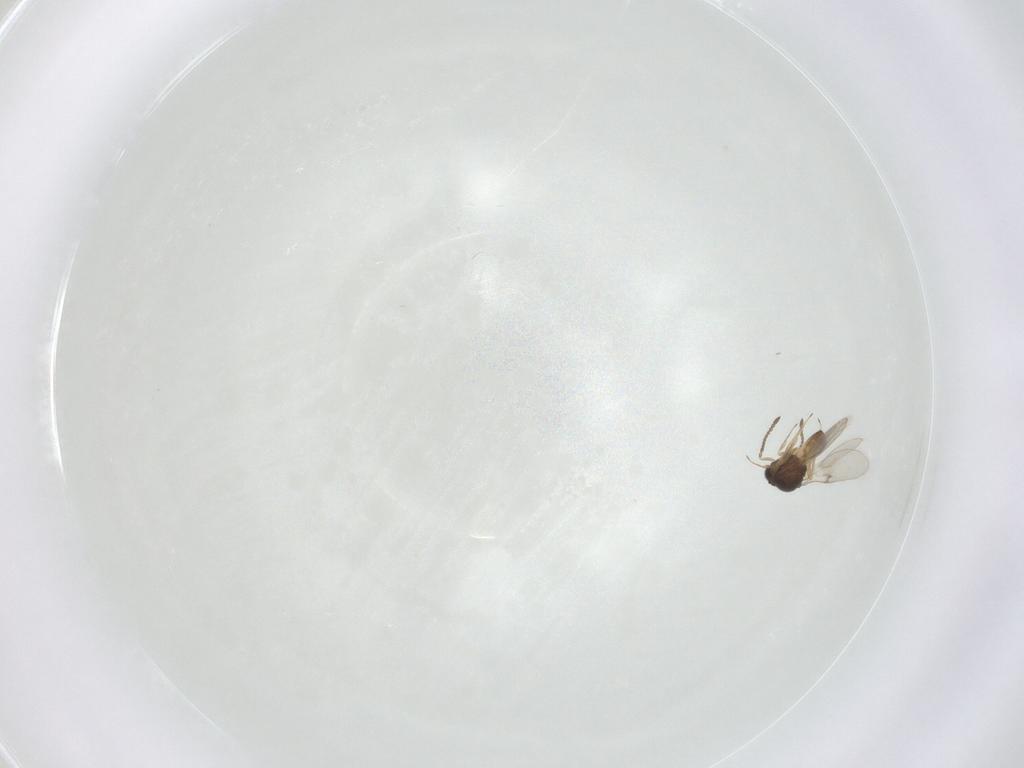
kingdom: Animalia
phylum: Arthropoda
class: Insecta
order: Hymenoptera
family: Scelionidae
